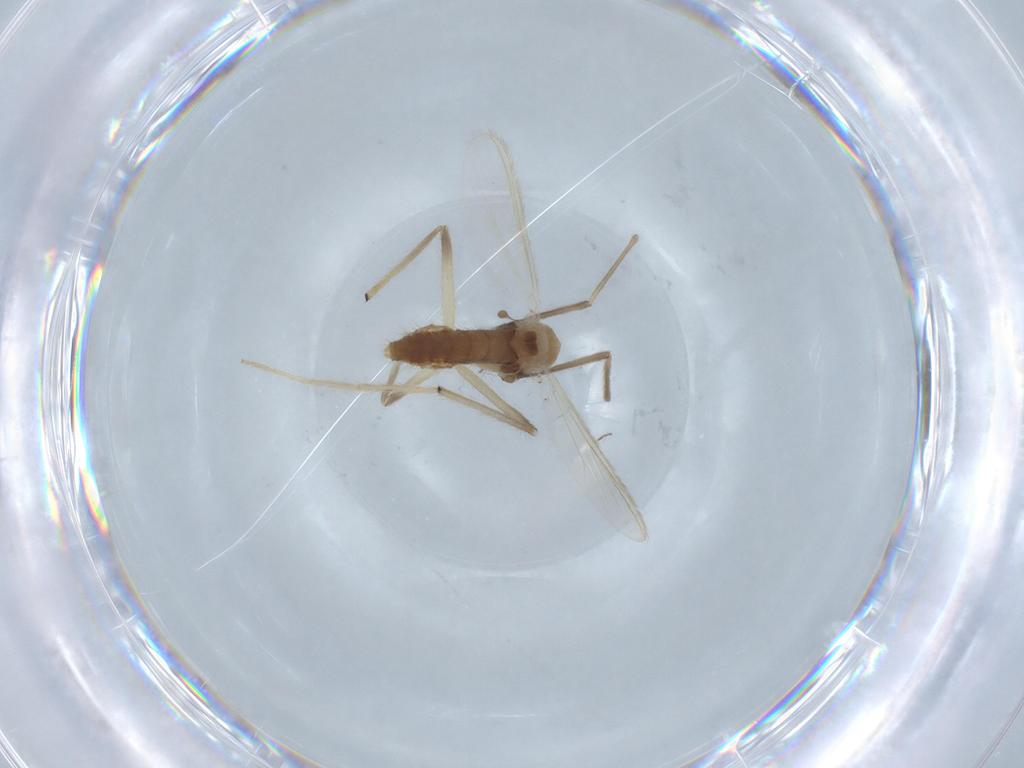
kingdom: Animalia
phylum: Arthropoda
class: Insecta
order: Diptera
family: Chironomidae
